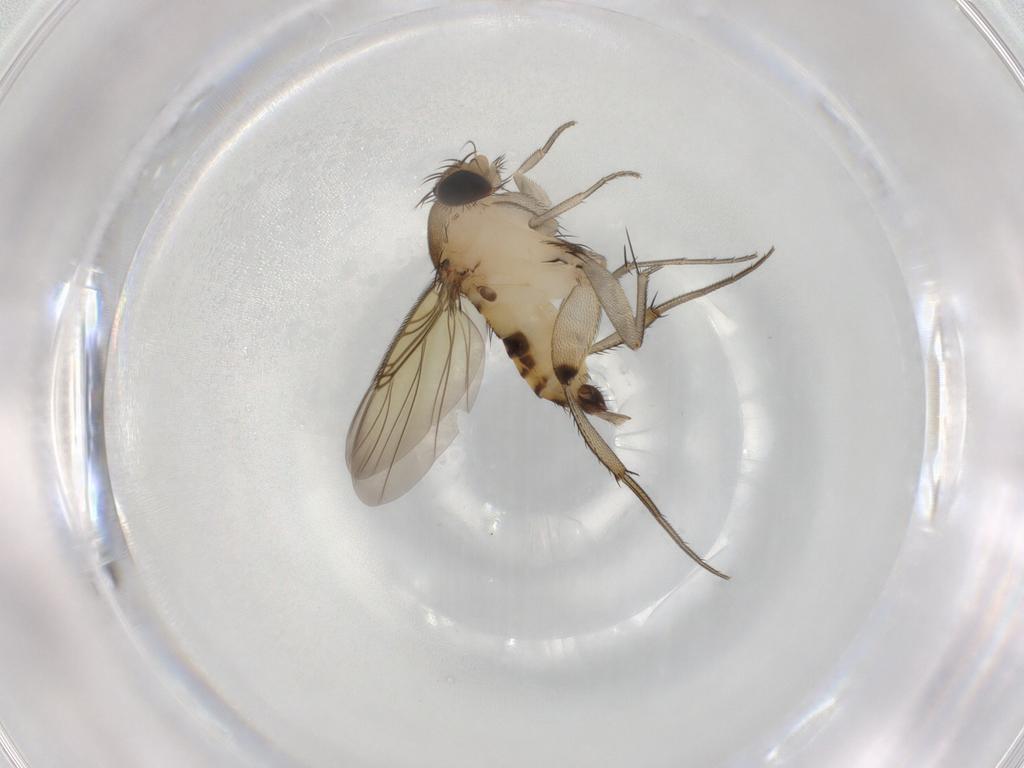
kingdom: Animalia
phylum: Arthropoda
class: Insecta
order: Diptera
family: Phoridae
